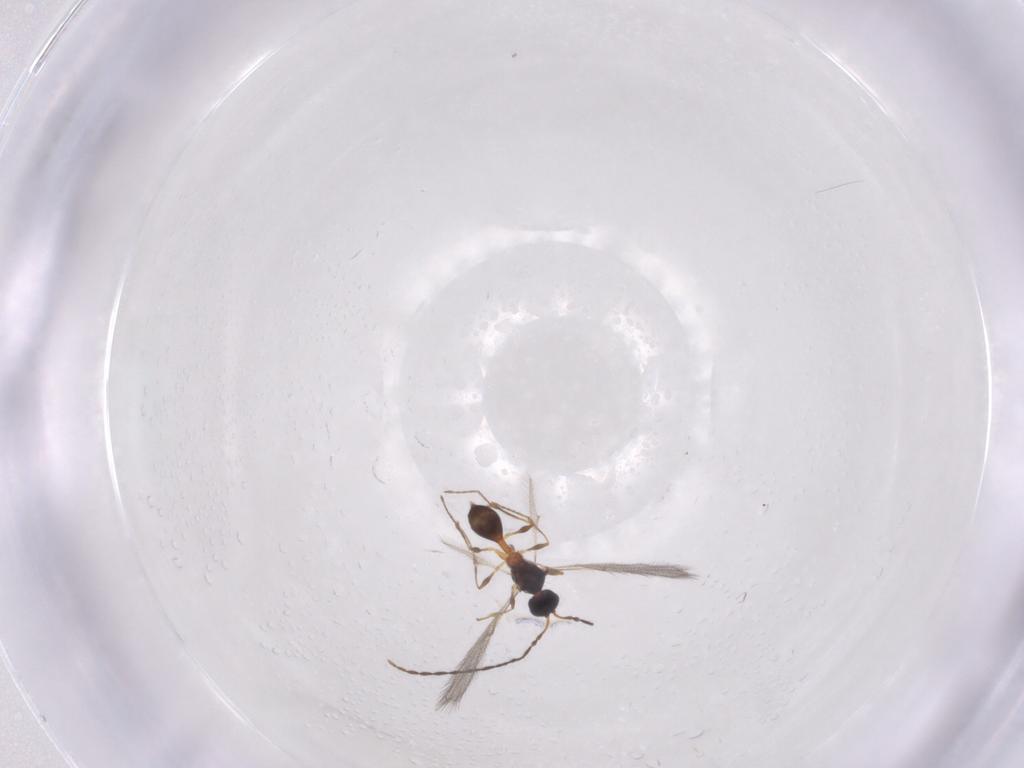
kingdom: Animalia
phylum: Arthropoda
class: Insecta
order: Hymenoptera
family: Diapriidae
